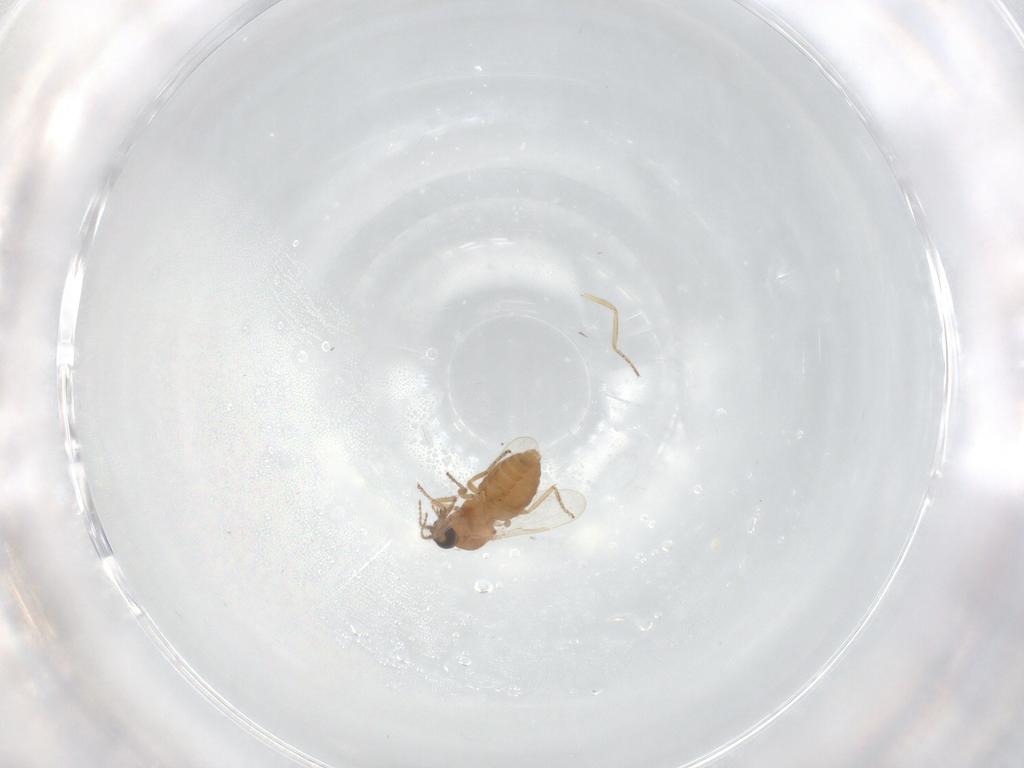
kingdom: Animalia
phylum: Arthropoda
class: Insecta
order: Diptera
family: Ceratopogonidae
